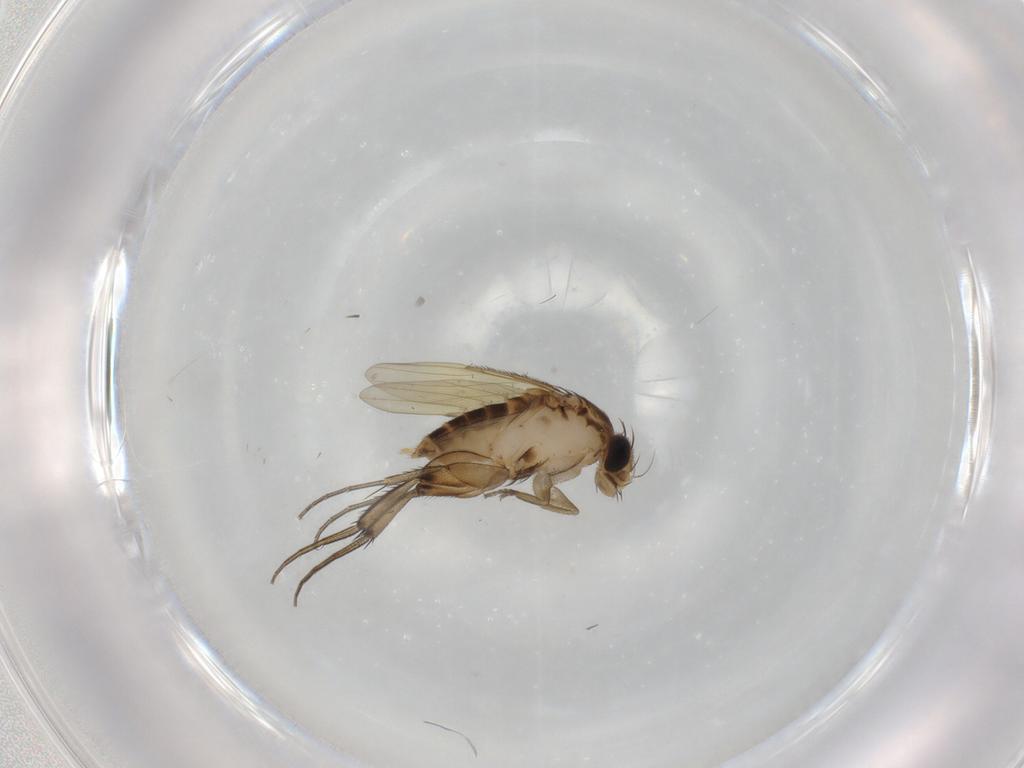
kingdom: Animalia
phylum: Arthropoda
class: Insecta
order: Diptera
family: Phoridae
